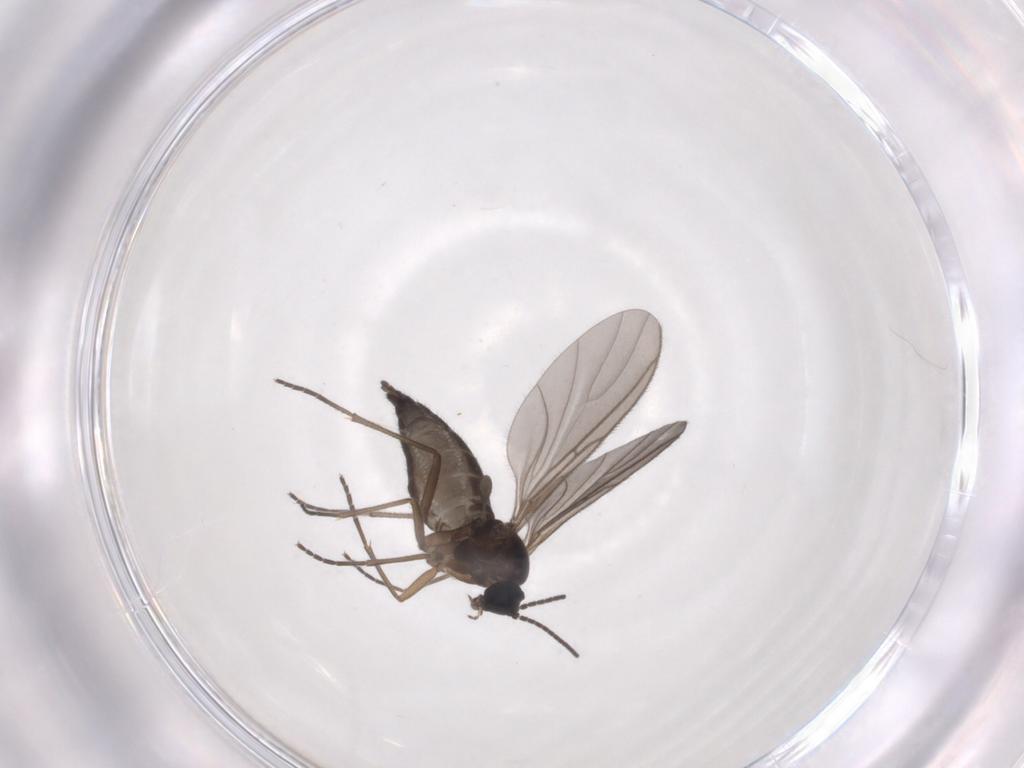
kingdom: Animalia
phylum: Arthropoda
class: Insecta
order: Diptera
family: Sciaridae
